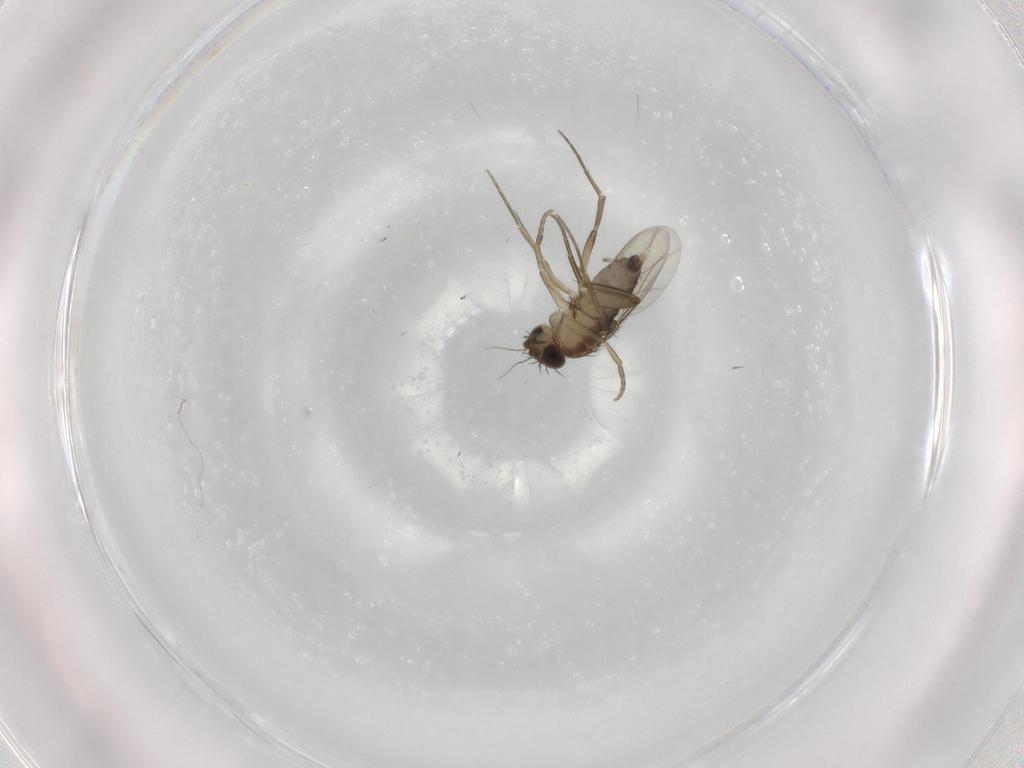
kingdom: Animalia
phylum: Arthropoda
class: Insecta
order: Diptera
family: Phoridae
